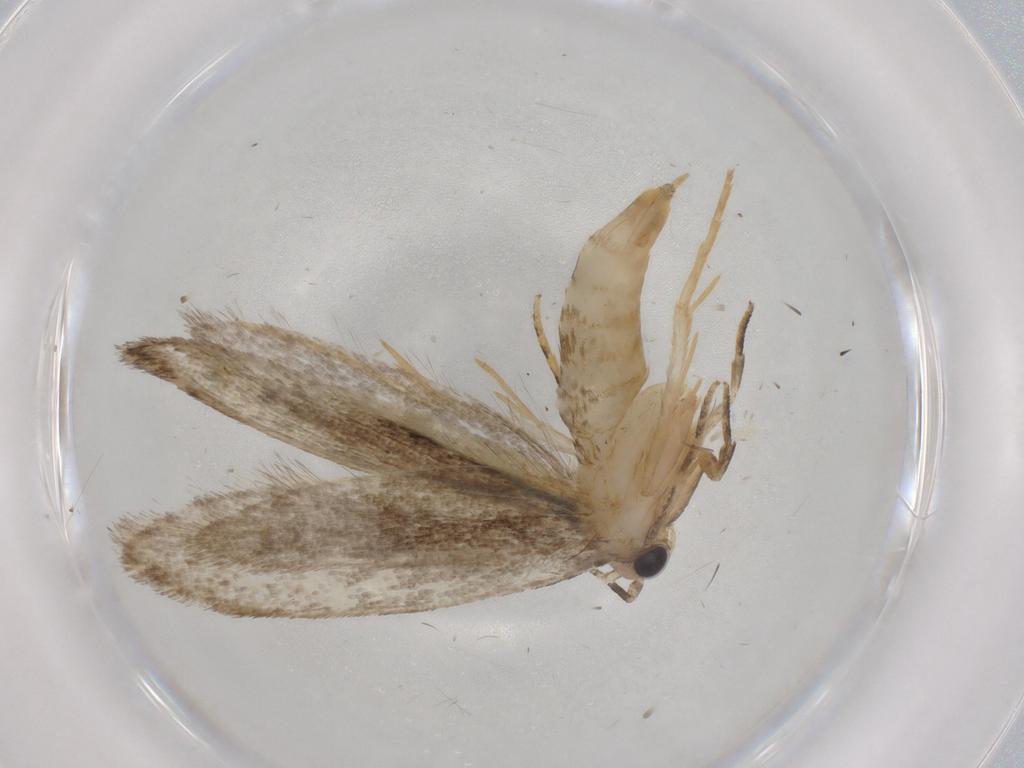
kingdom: Animalia
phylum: Arthropoda
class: Insecta
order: Lepidoptera
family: Tineidae
